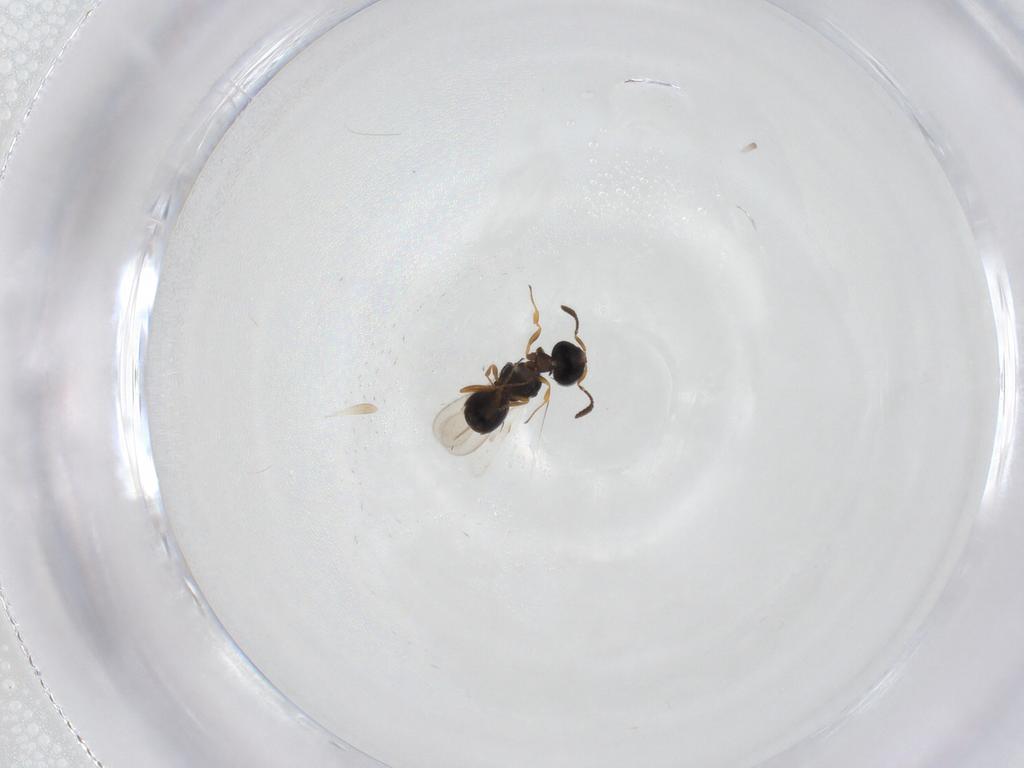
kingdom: Animalia
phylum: Arthropoda
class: Insecta
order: Hymenoptera
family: Scelionidae
